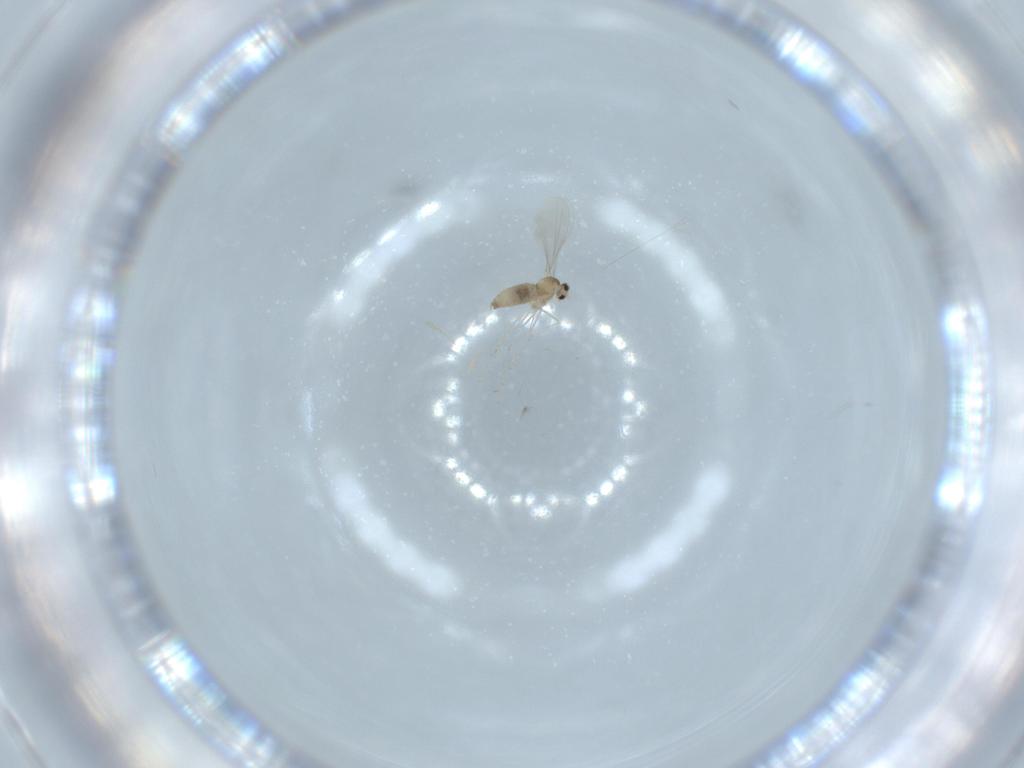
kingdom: Animalia
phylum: Arthropoda
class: Insecta
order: Diptera
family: Cecidomyiidae
